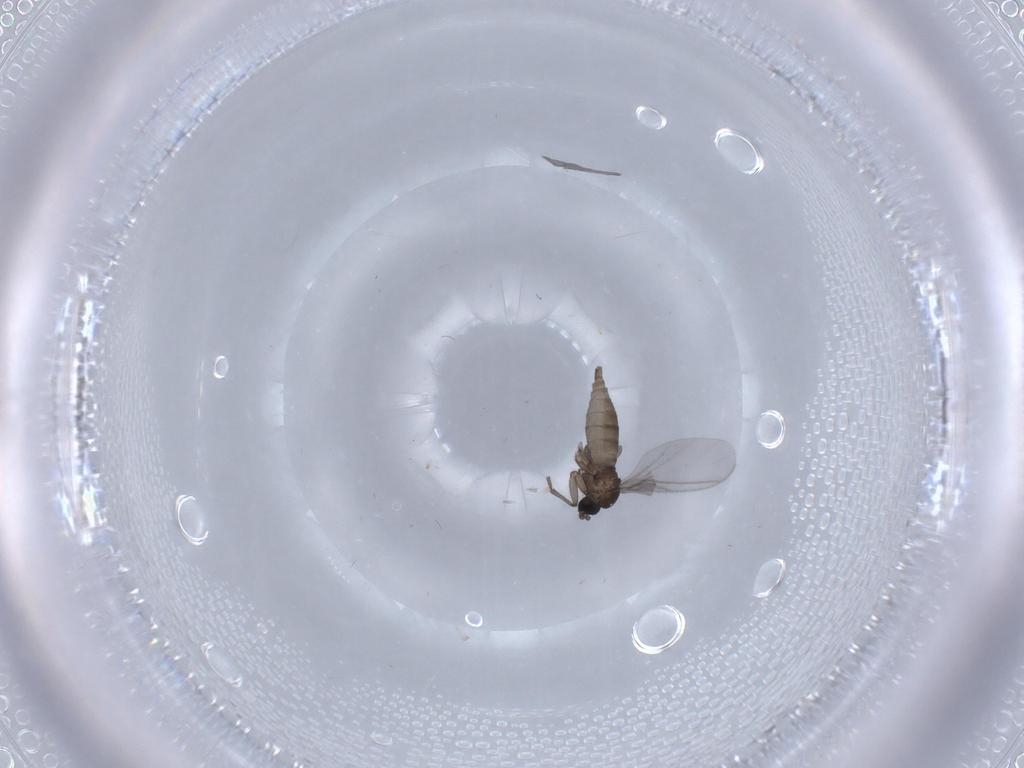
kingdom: Animalia
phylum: Arthropoda
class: Insecta
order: Diptera
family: Sciaridae
